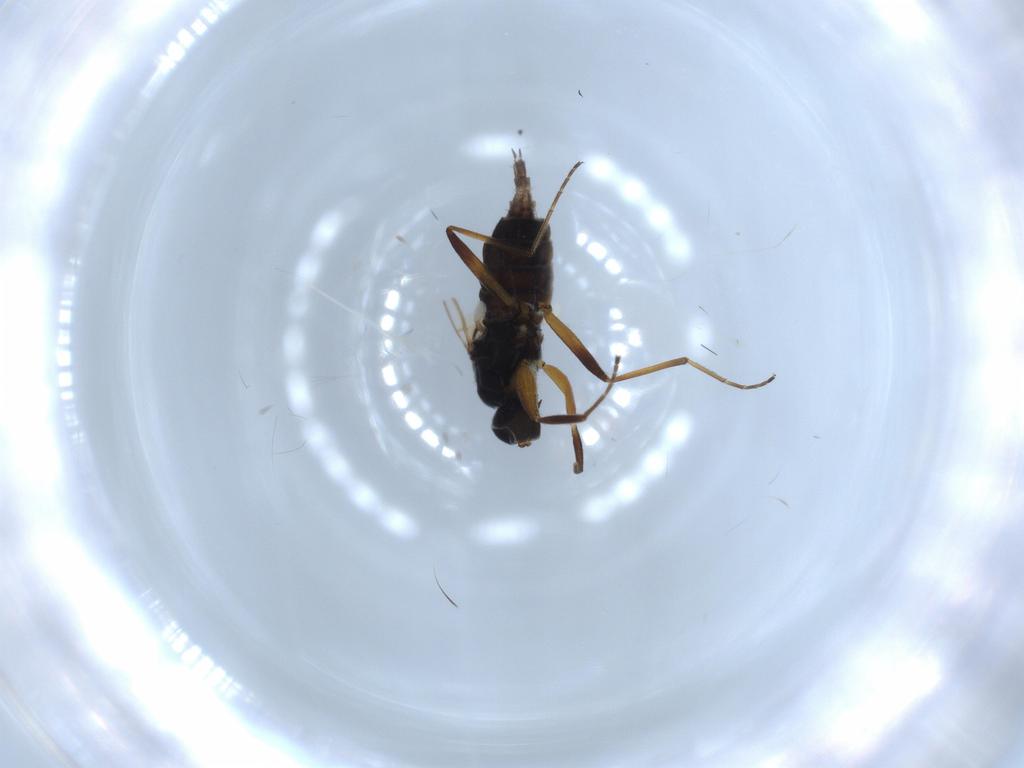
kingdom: Animalia
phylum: Arthropoda
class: Insecta
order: Diptera
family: Hybotidae
